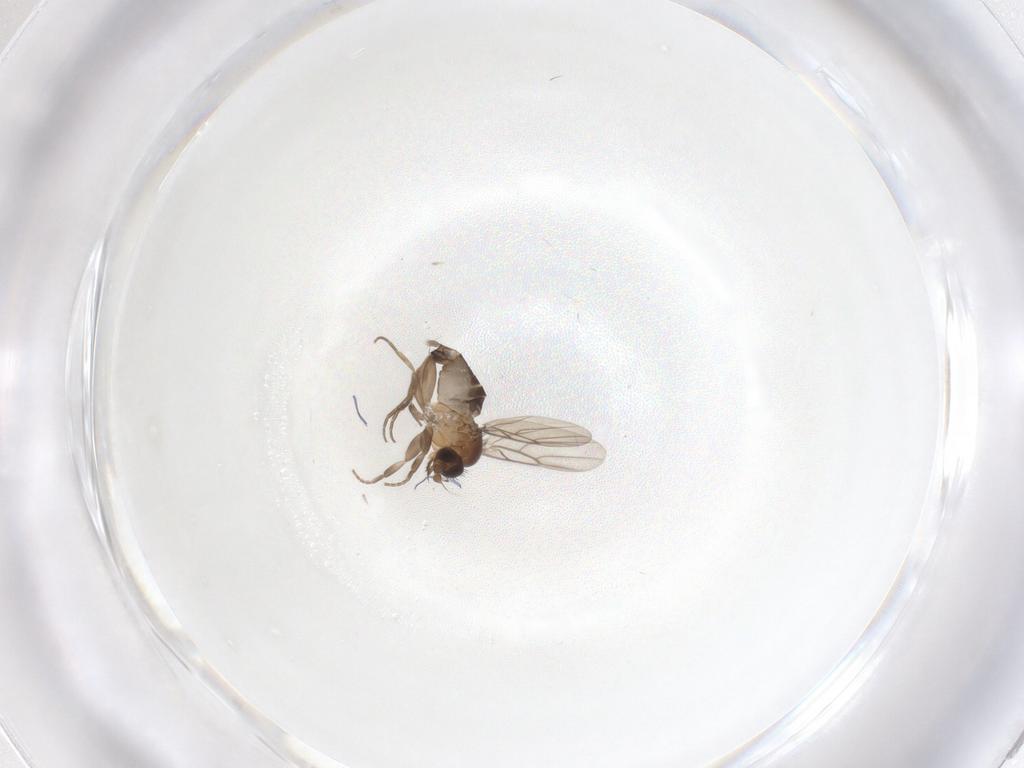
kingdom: Animalia
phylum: Arthropoda
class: Insecta
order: Diptera
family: Phoridae
